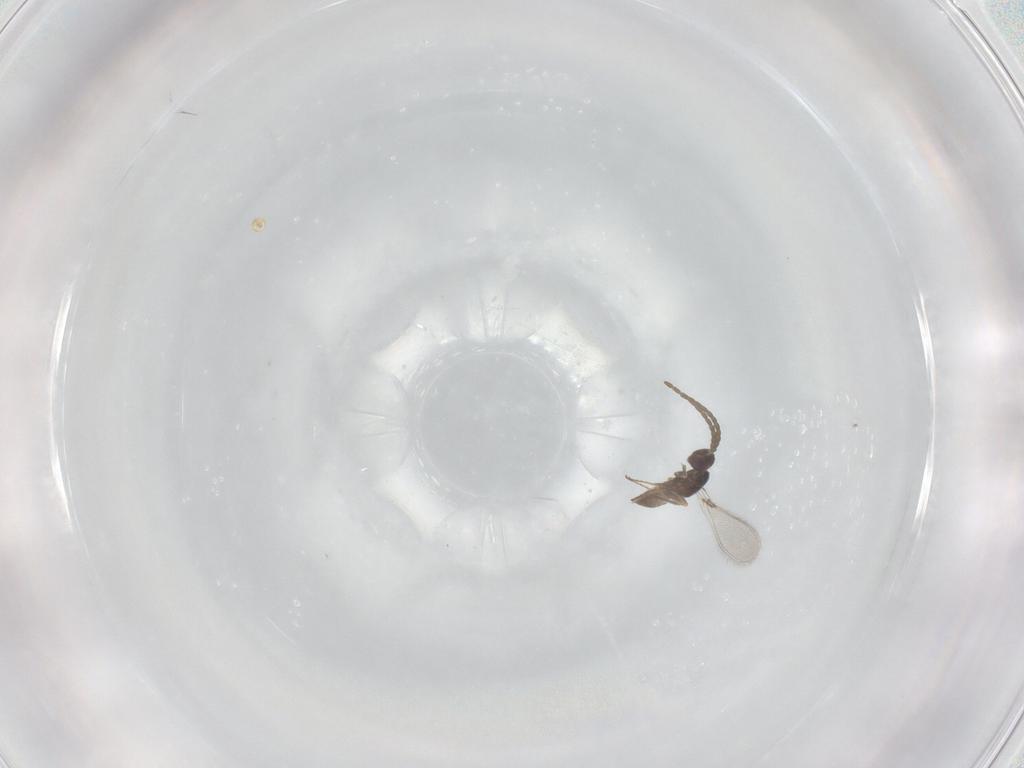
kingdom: Animalia
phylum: Arthropoda
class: Insecta
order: Hymenoptera
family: Mymaridae
